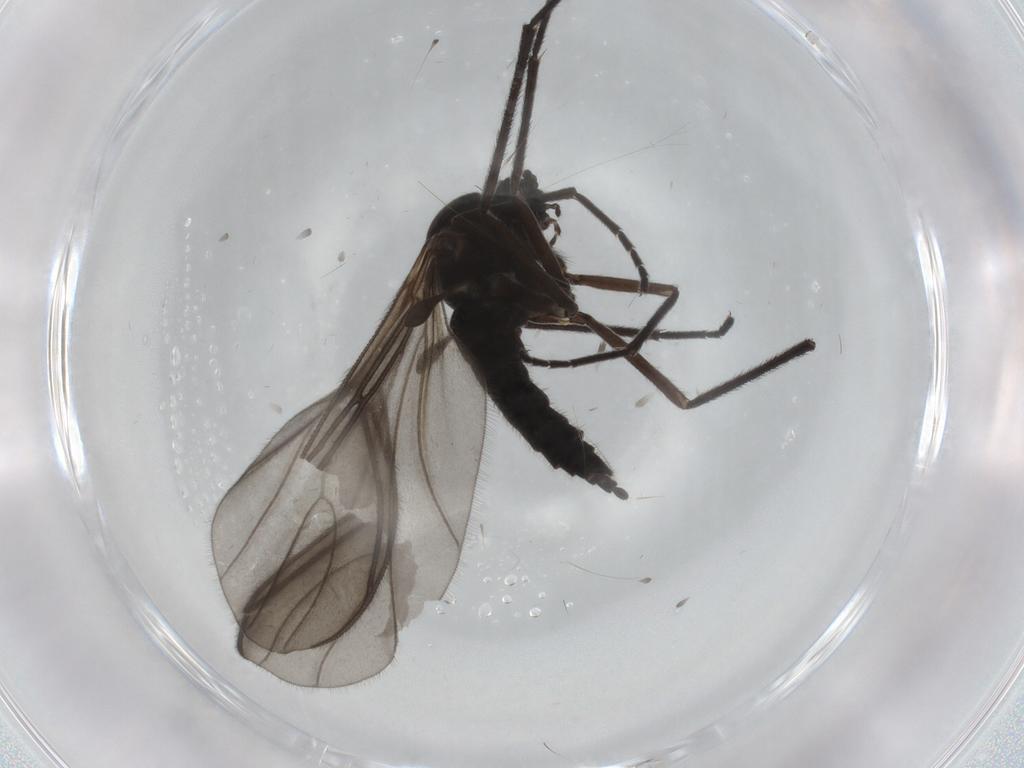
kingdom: Animalia
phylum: Arthropoda
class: Insecta
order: Diptera
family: Sciaridae
